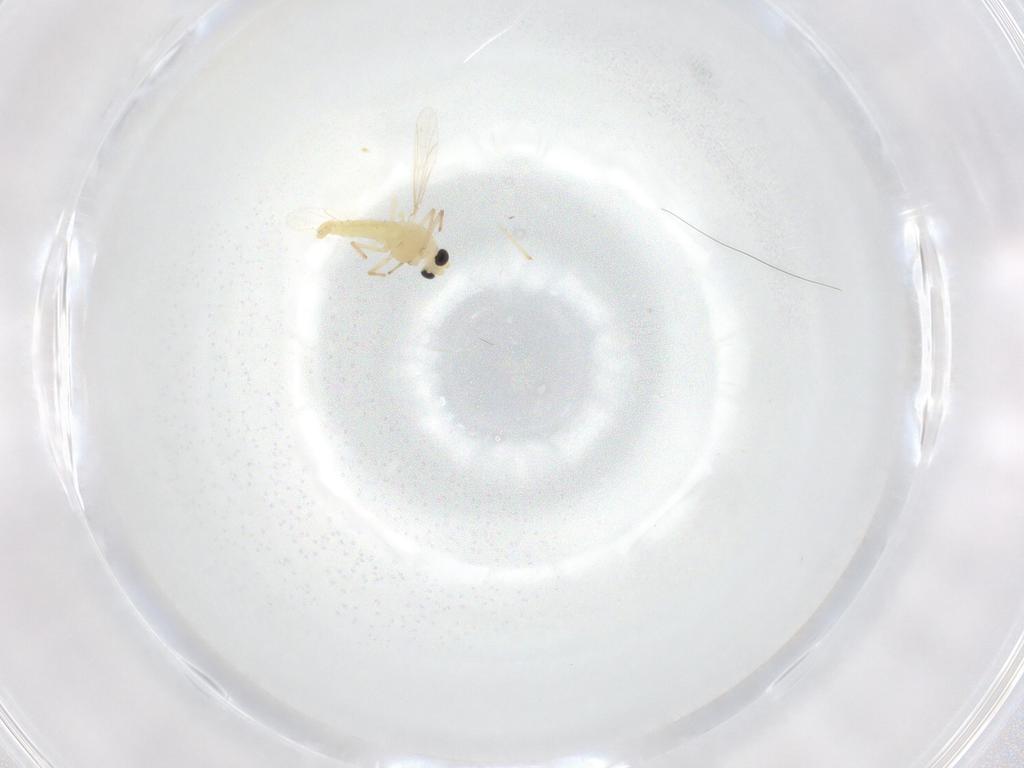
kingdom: Animalia
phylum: Arthropoda
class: Insecta
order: Diptera
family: Chironomidae
